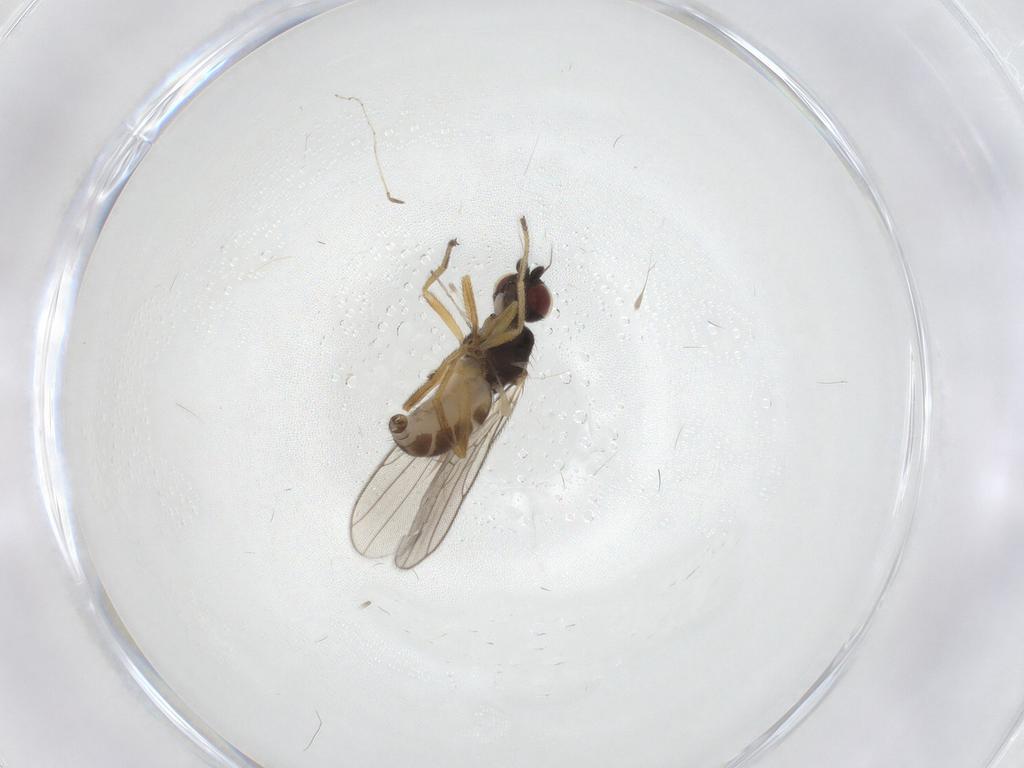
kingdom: Animalia
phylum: Arthropoda
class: Insecta
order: Diptera
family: Chloropidae
